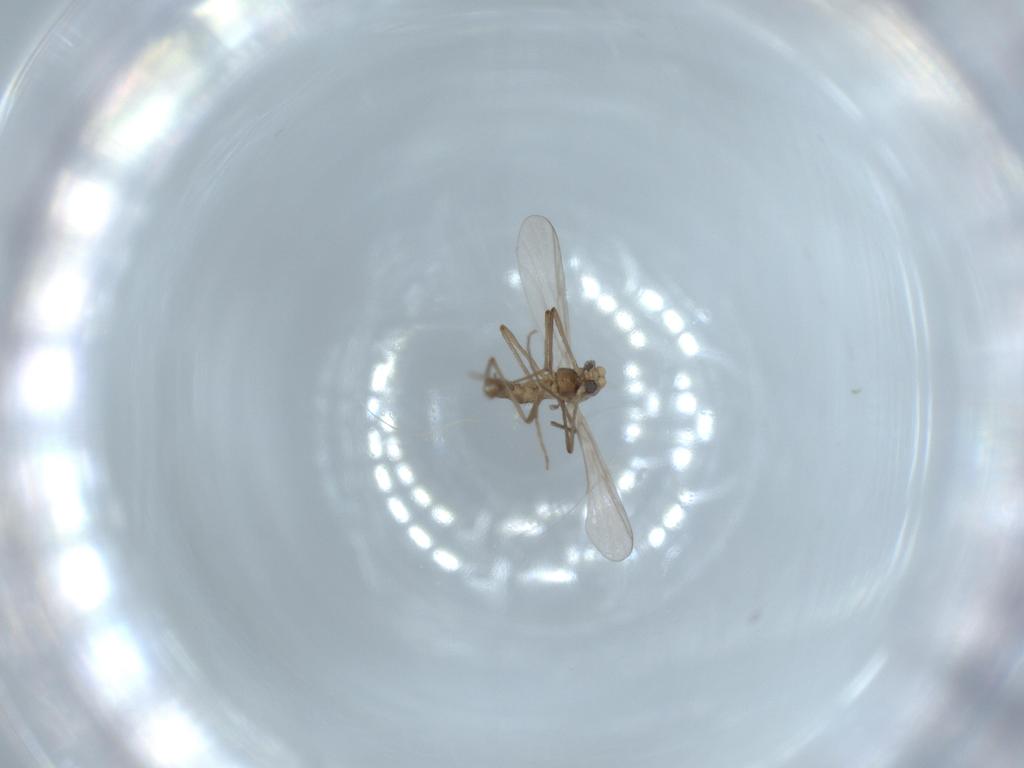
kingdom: Animalia
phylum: Arthropoda
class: Insecta
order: Diptera
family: Chironomidae
